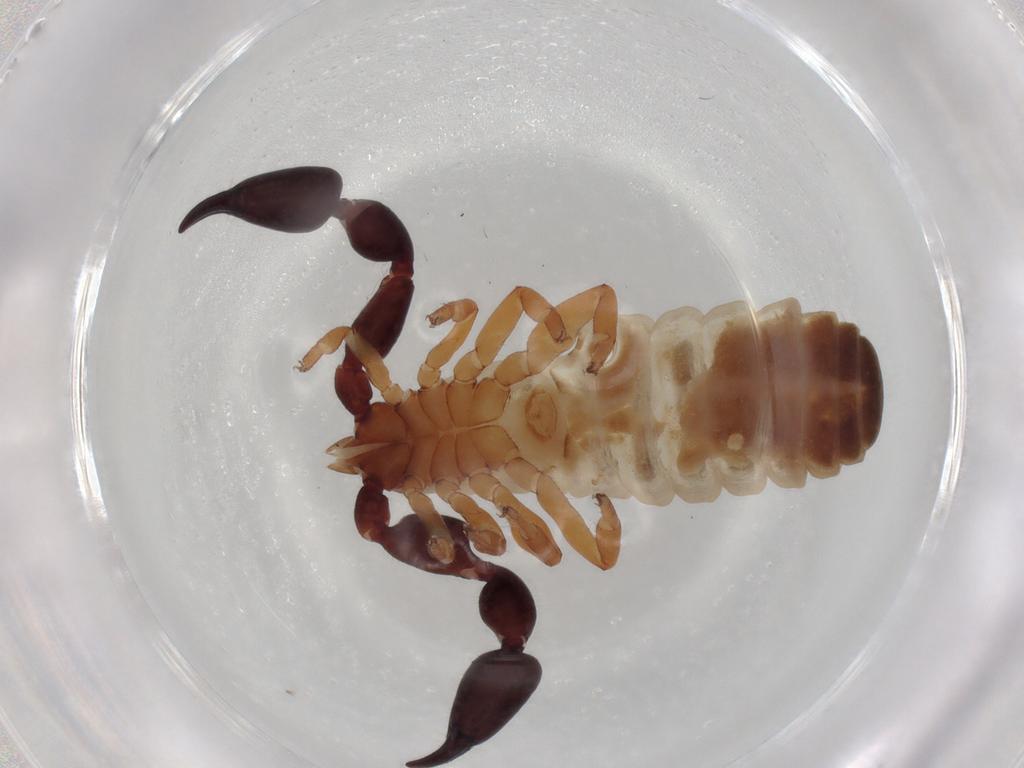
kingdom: Animalia
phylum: Arthropoda
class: Arachnida
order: Pseudoscorpiones
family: Chernetidae
